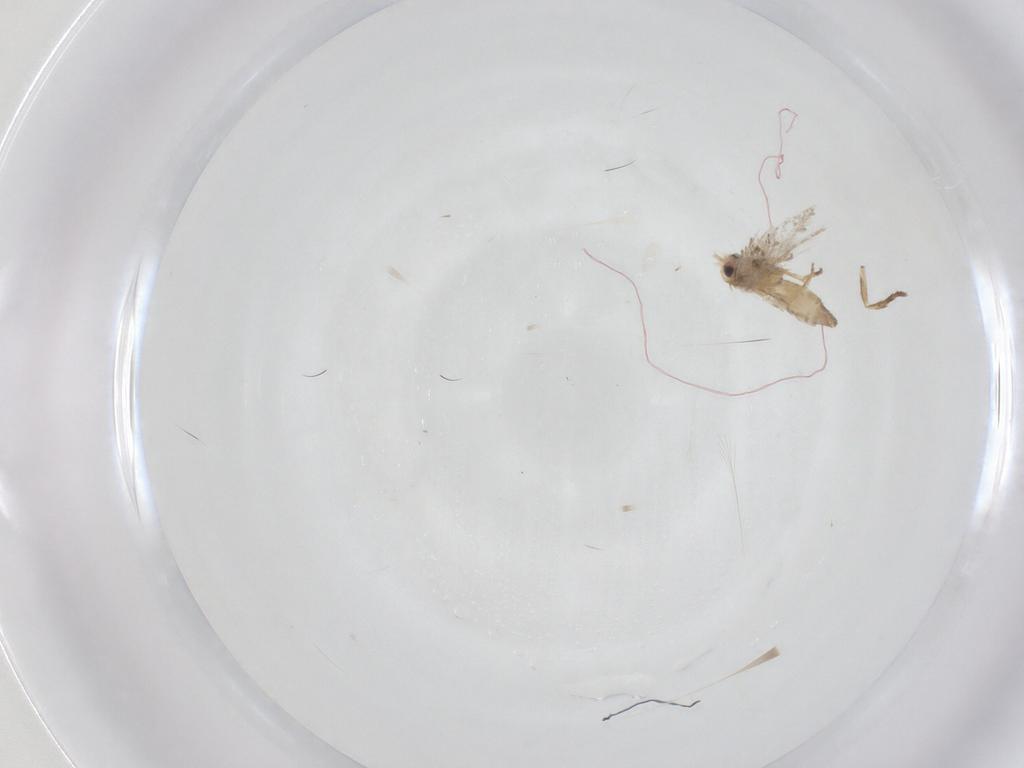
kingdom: Animalia
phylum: Arthropoda
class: Insecta
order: Lepidoptera
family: Nepticulidae
